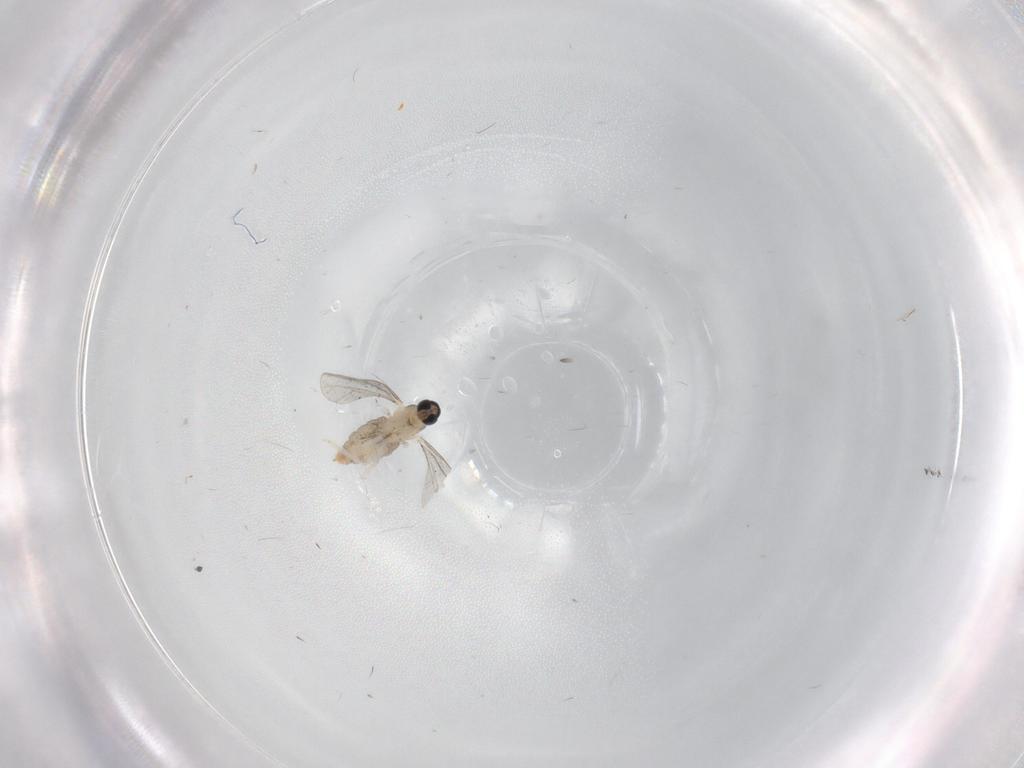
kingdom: Animalia
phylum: Arthropoda
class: Insecta
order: Diptera
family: Cecidomyiidae
